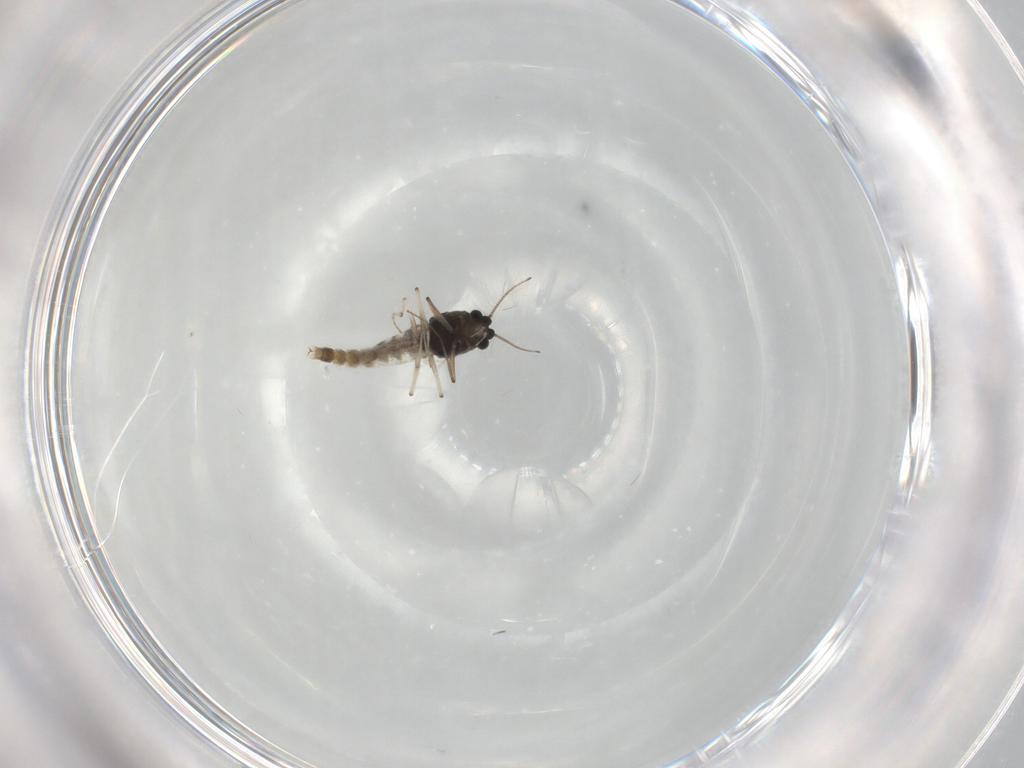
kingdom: Animalia
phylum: Arthropoda
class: Insecta
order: Diptera
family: Chironomidae
